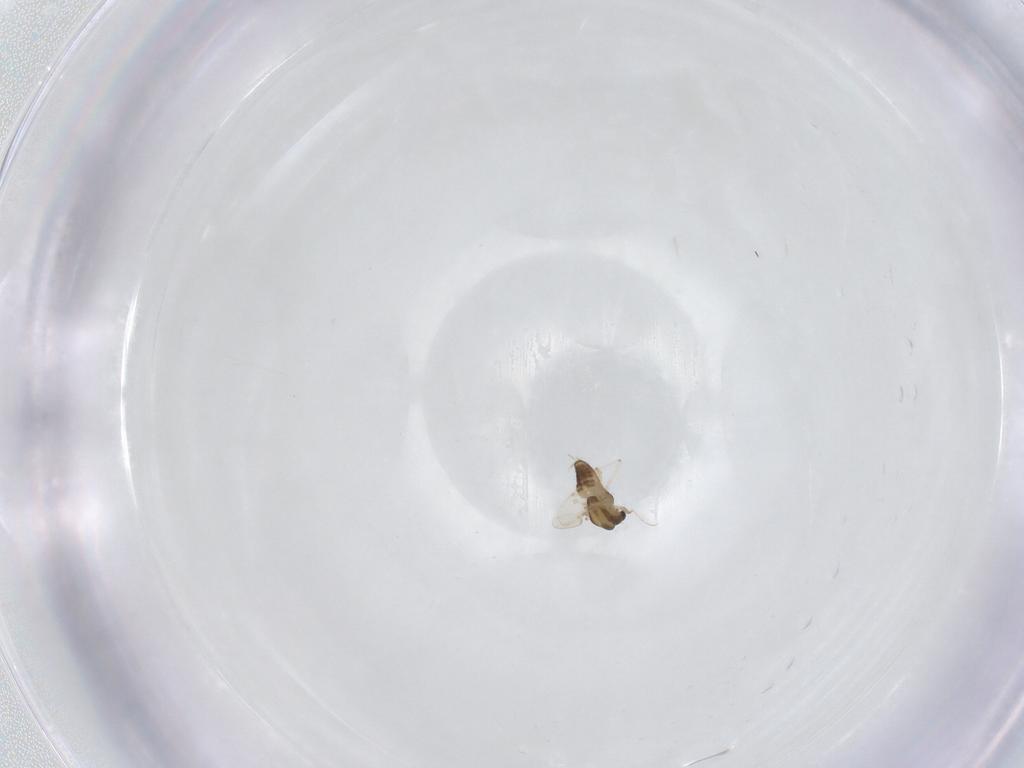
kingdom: Animalia
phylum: Arthropoda
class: Insecta
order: Diptera
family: Chironomidae
